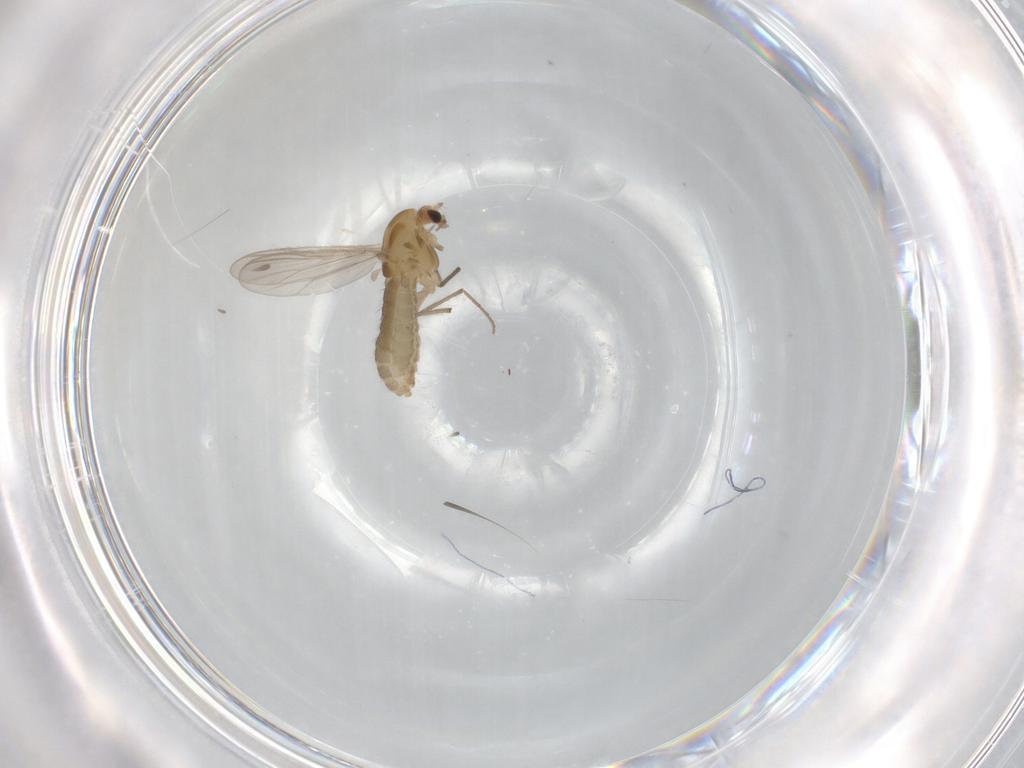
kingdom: Animalia
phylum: Arthropoda
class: Insecta
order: Diptera
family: Chironomidae
